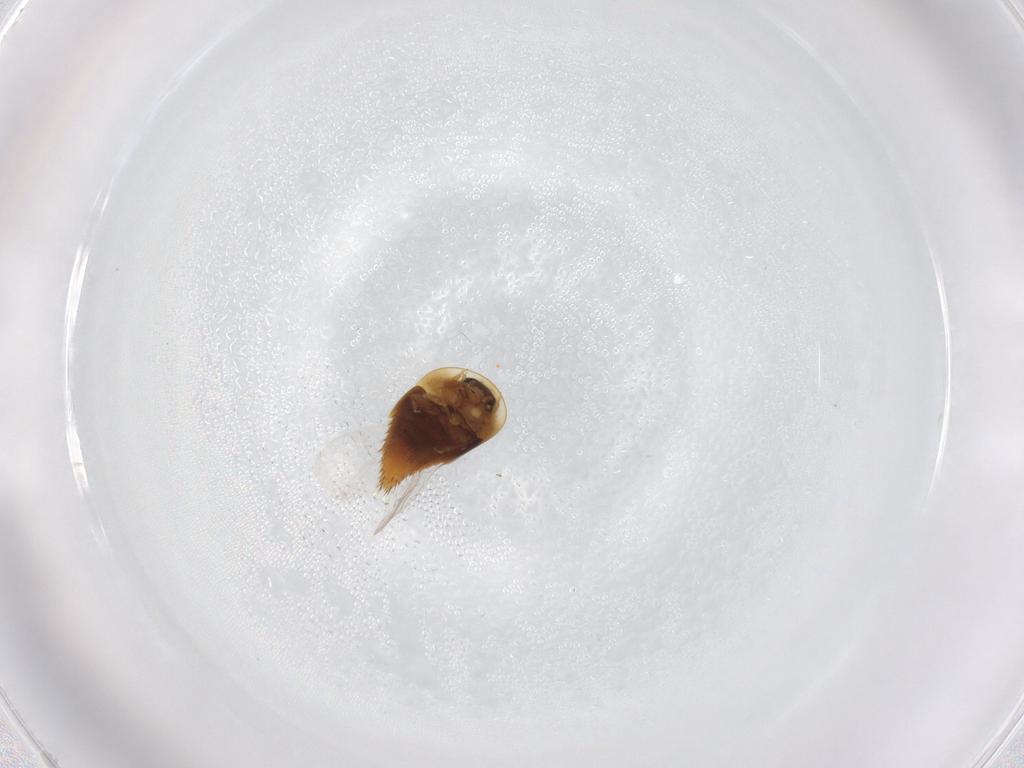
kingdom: Animalia
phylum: Arthropoda
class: Insecta
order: Coleoptera
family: Staphylinidae
